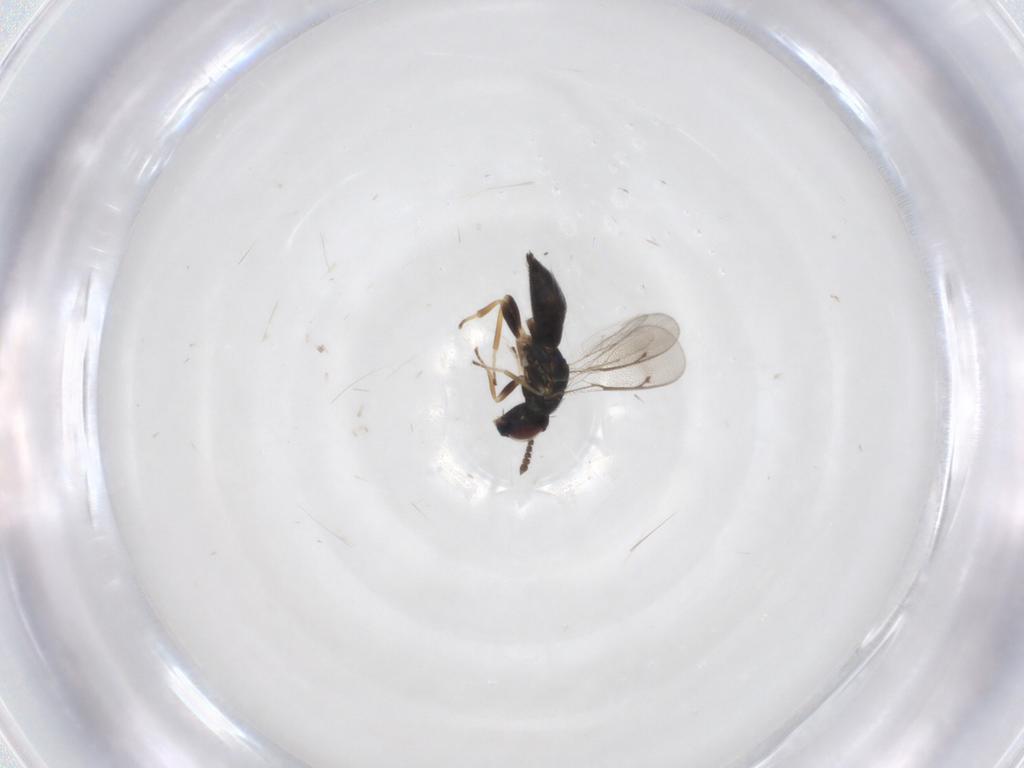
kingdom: Animalia
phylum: Arthropoda
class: Insecta
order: Hymenoptera
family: Eulophidae
